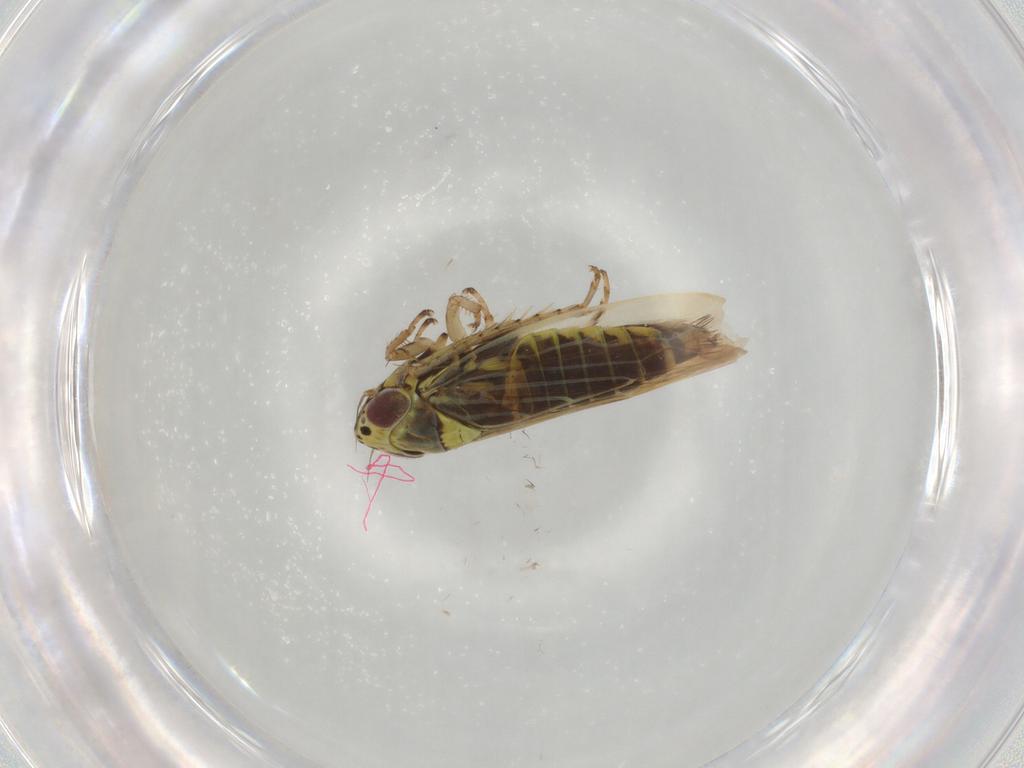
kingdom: Animalia
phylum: Arthropoda
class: Insecta
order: Hemiptera
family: Cicadellidae
